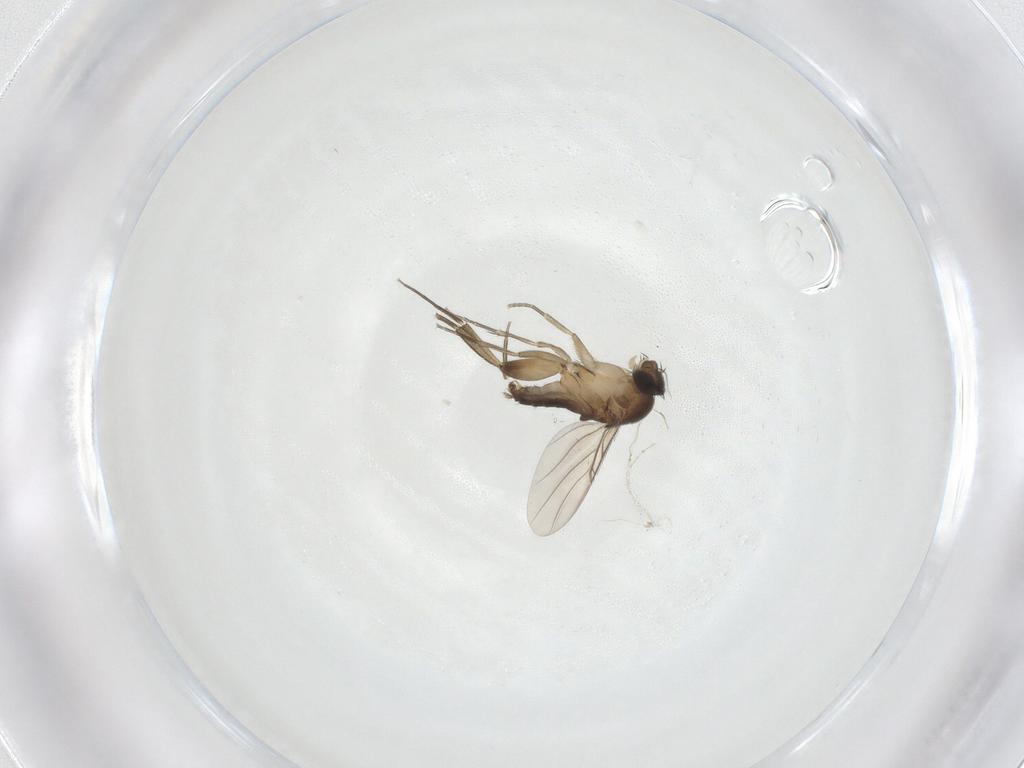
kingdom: Animalia
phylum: Arthropoda
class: Insecta
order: Diptera
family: Phoridae
